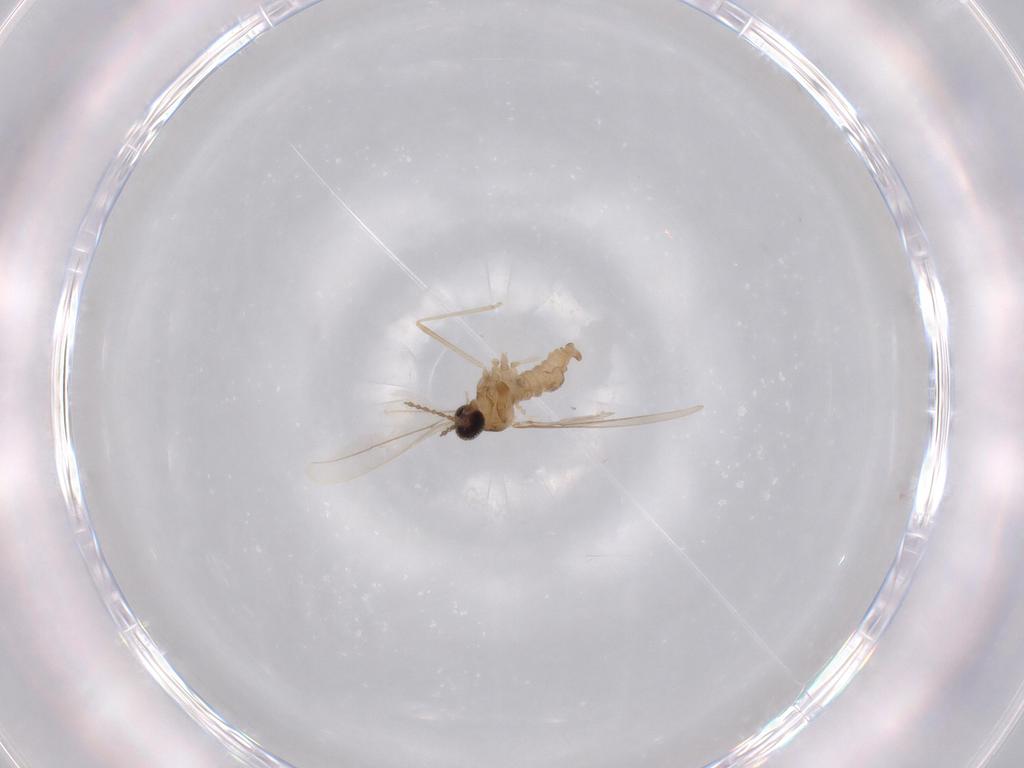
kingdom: Animalia
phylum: Arthropoda
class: Insecta
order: Diptera
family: Cecidomyiidae
